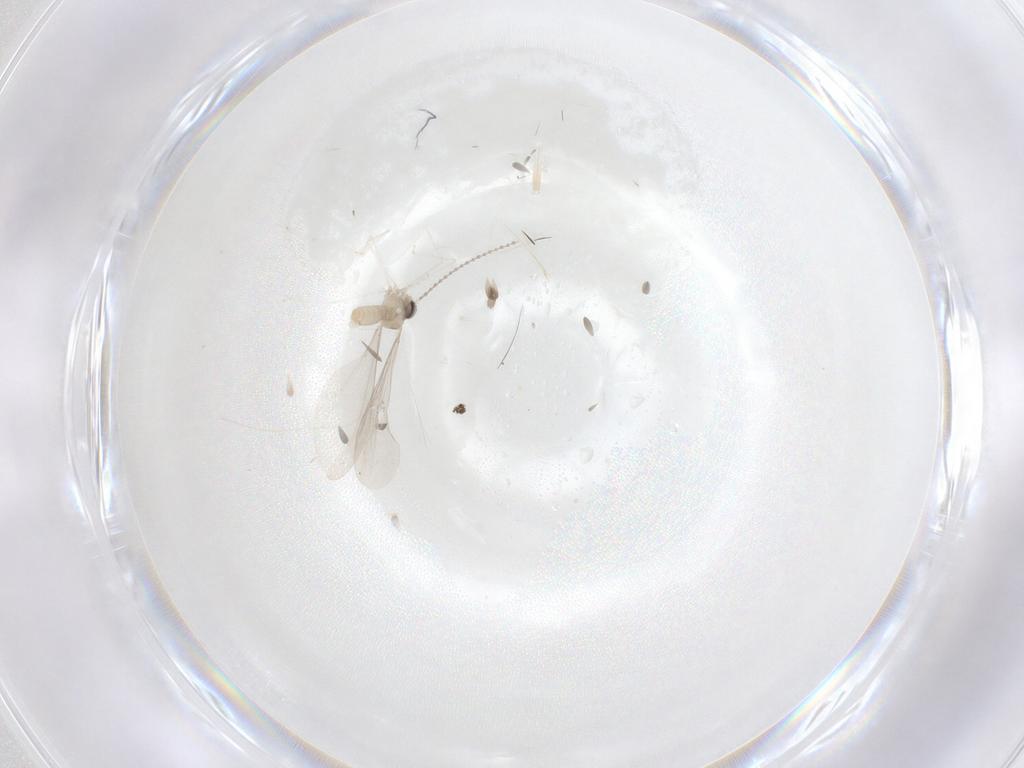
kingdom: Animalia
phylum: Arthropoda
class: Insecta
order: Diptera
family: Cecidomyiidae
